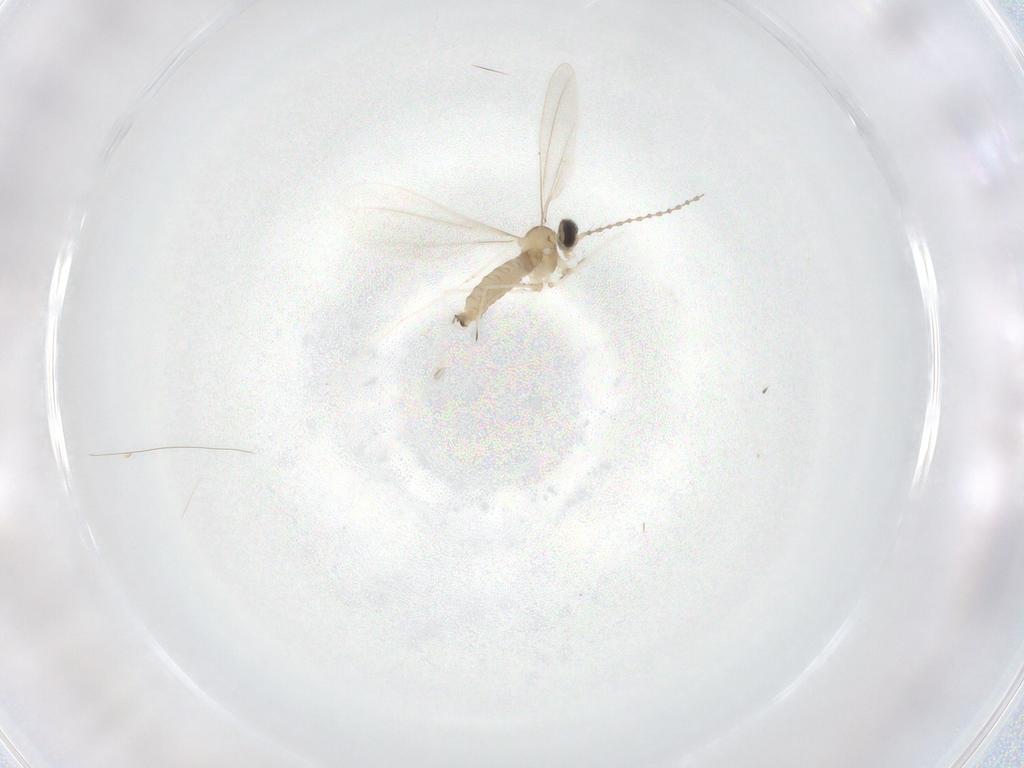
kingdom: Animalia
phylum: Arthropoda
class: Insecta
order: Diptera
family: Cecidomyiidae
